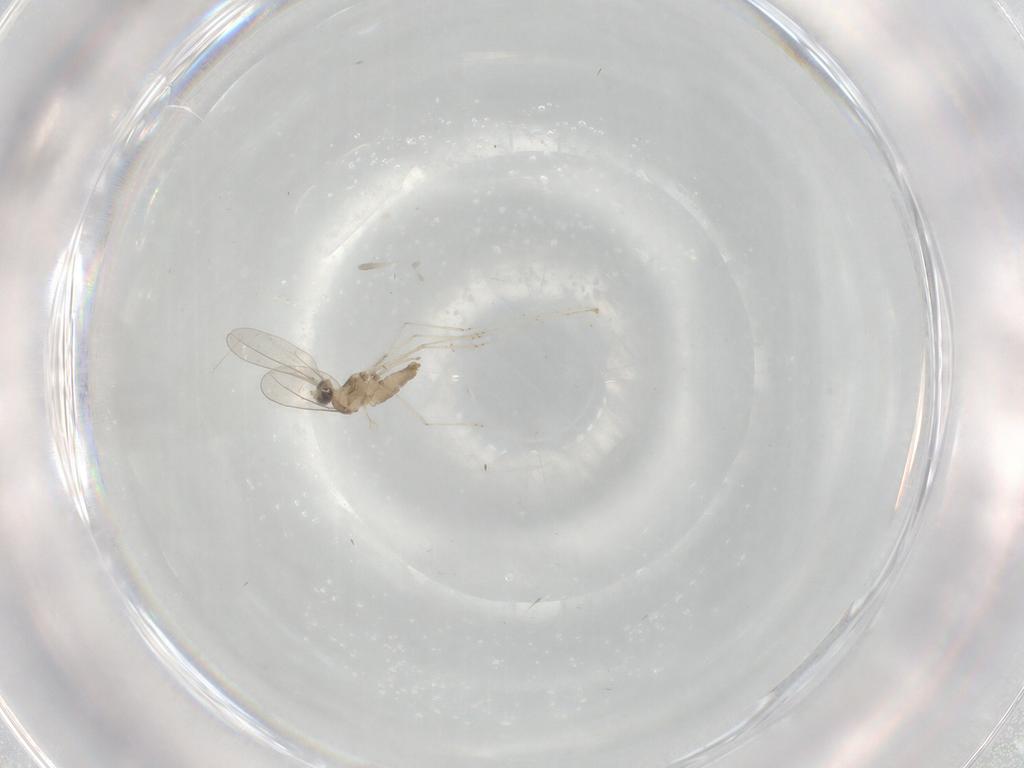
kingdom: Animalia
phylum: Arthropoda
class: Insecta
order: Diptera
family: Cecidomyiidae
